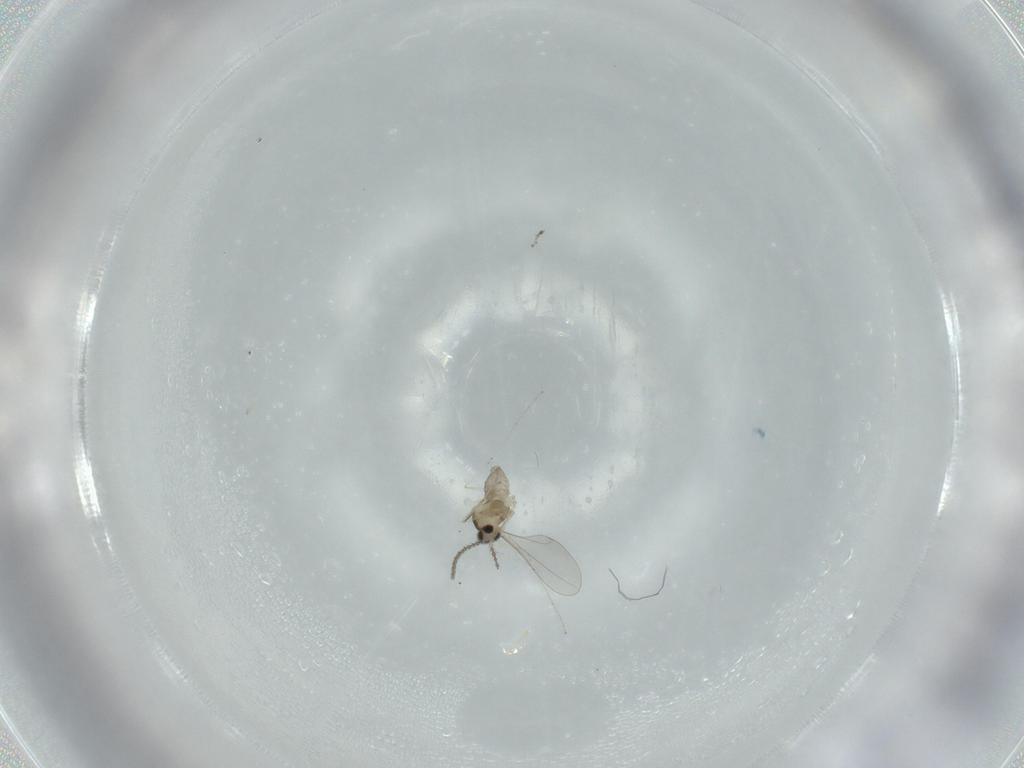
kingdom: Animalia
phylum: Arthropoda
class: Insecta
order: Diptera
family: Cecidomyiidae
